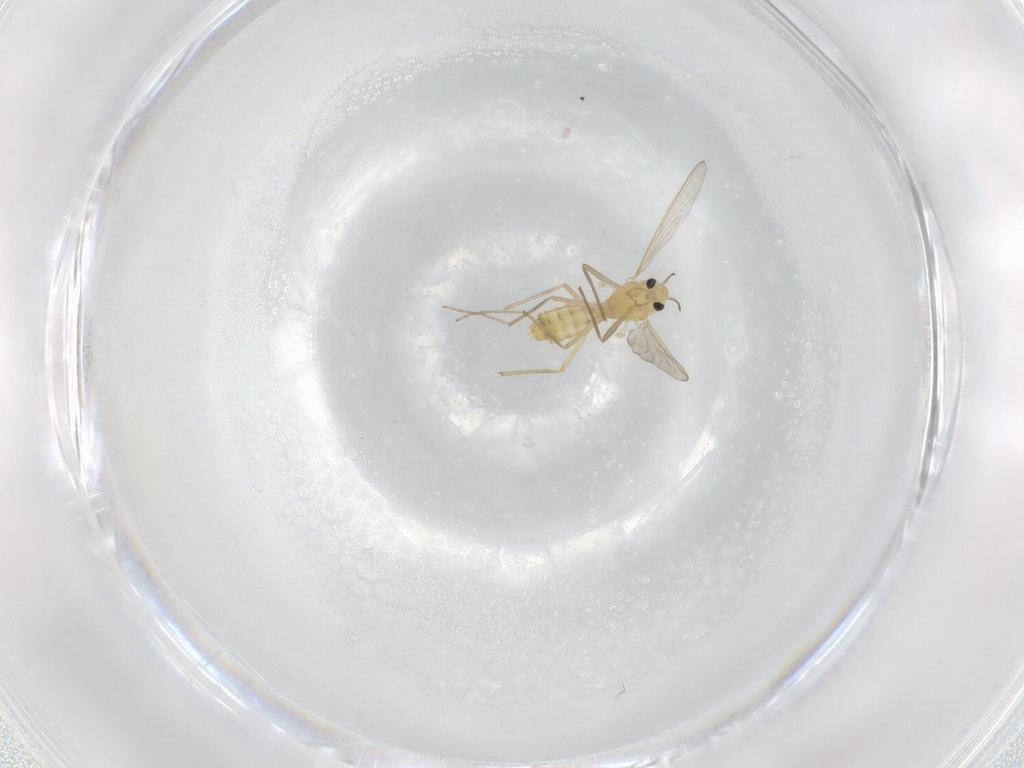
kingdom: Animalia
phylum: Arthropoda
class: Insecta
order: Diptera
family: Chironomidae
